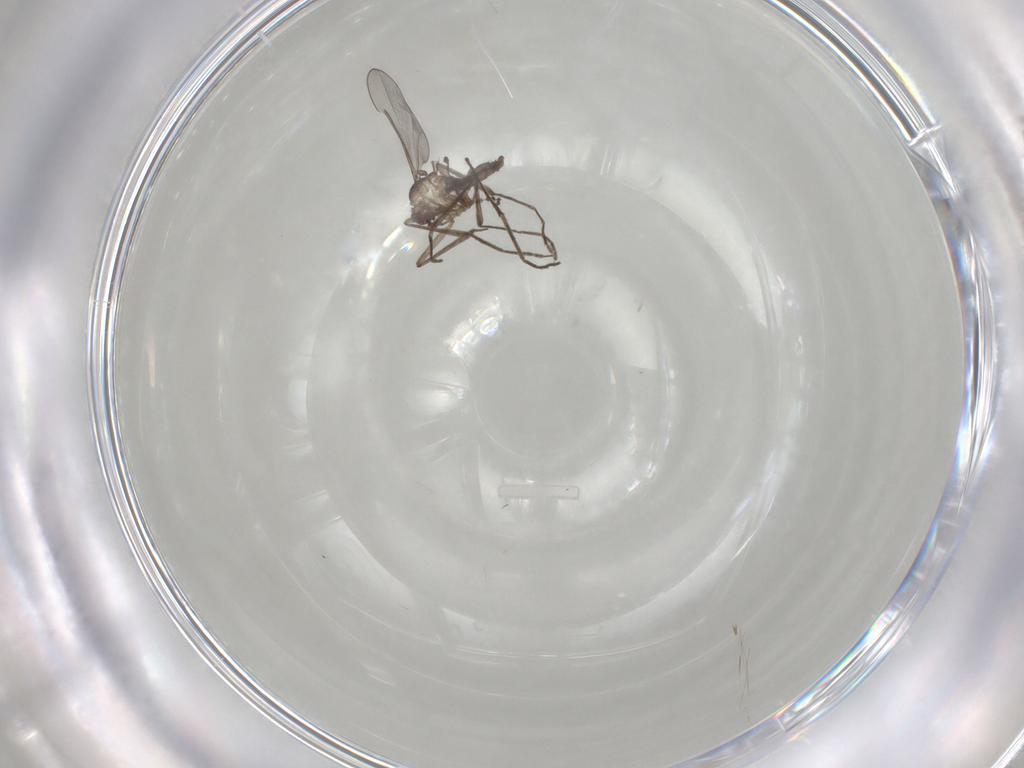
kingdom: Animalia
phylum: Arthropoda
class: Insecta
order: Diptera
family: Cecidomyiidae
